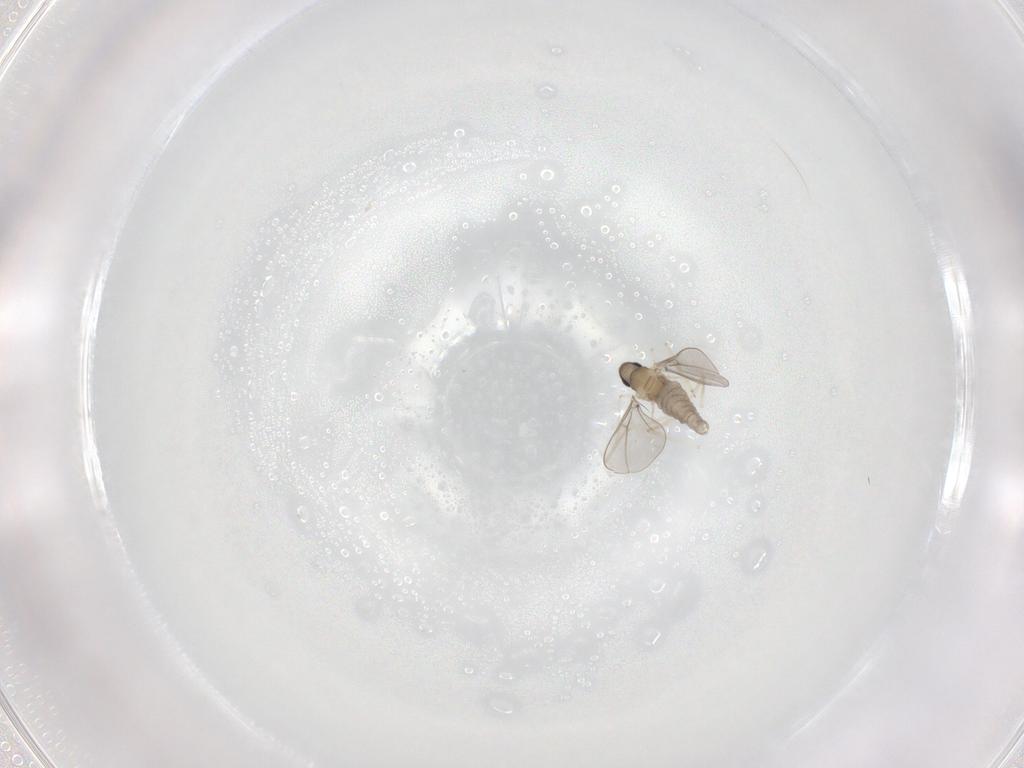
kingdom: Animalia
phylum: Arthropoda
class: Insecta
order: Diptera
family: Cecidomyiidae
